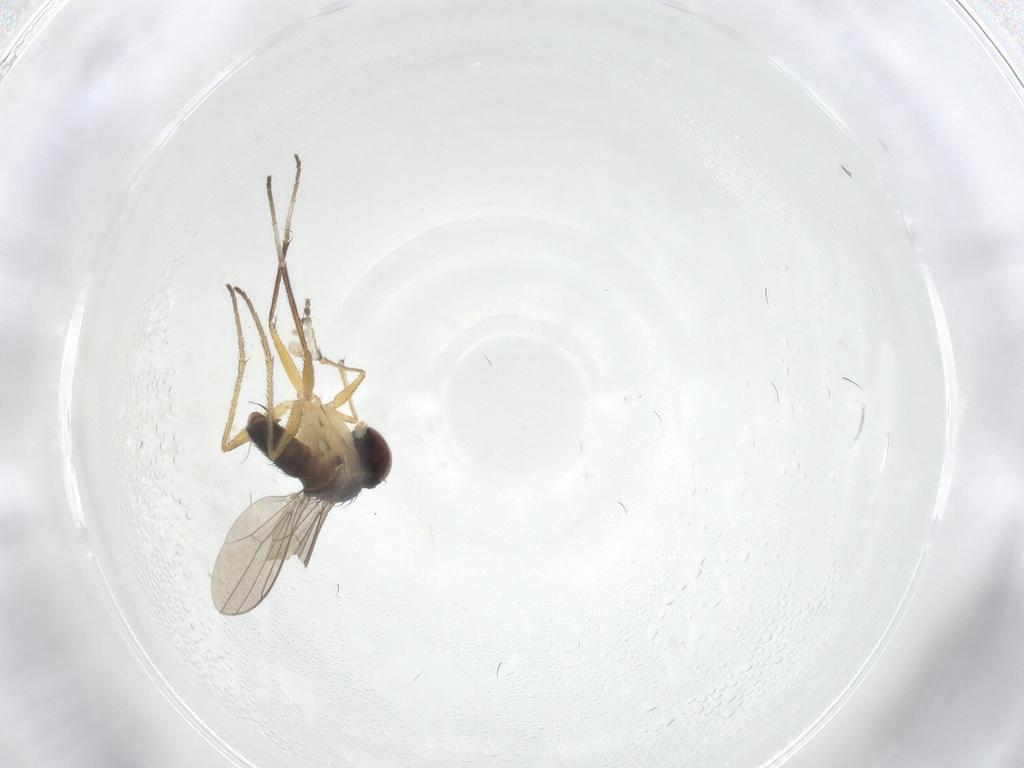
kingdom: Animalia
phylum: Arthropoda
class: Insecta
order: Diptera
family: Dolichopodidae
